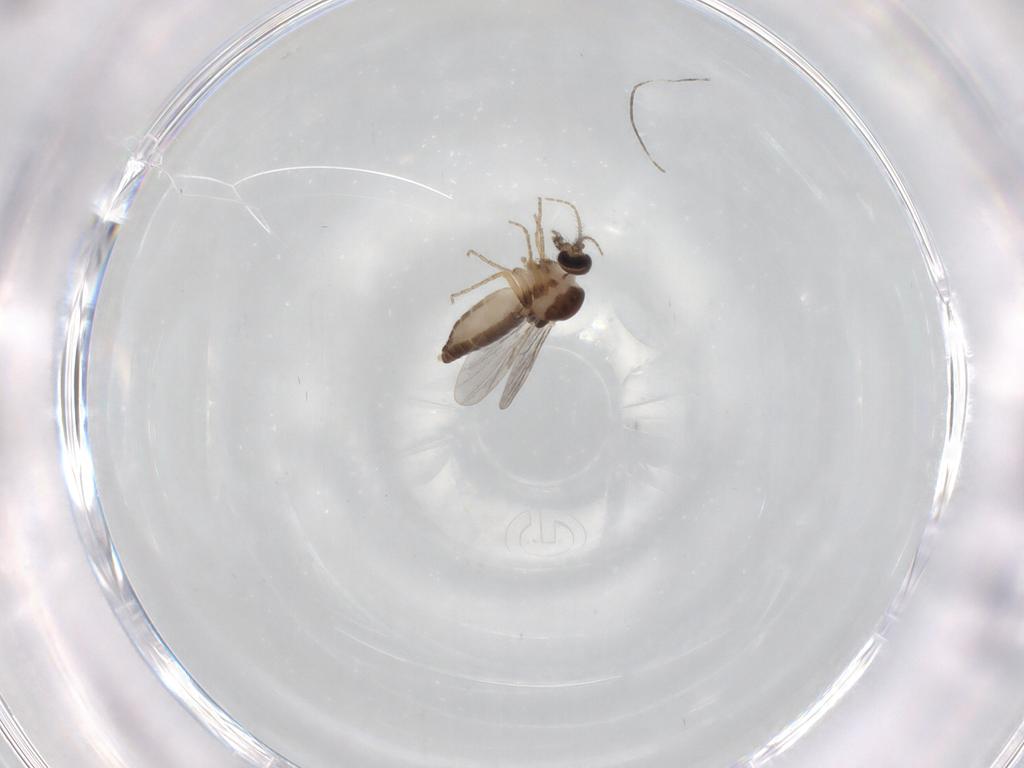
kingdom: Animalia
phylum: Arthropoda
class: Insecta
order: Diptera
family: Ceratopogonidae
